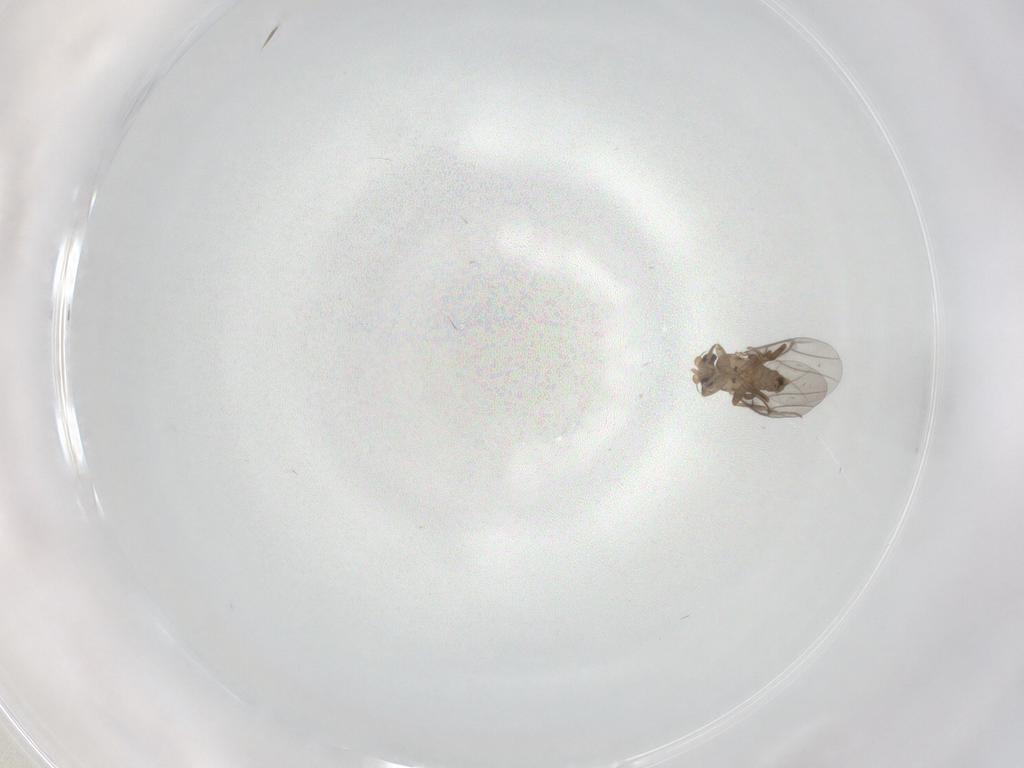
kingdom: Animalia
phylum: Arthropoda
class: Insecta
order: Diptera
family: Ceratopogonidae
